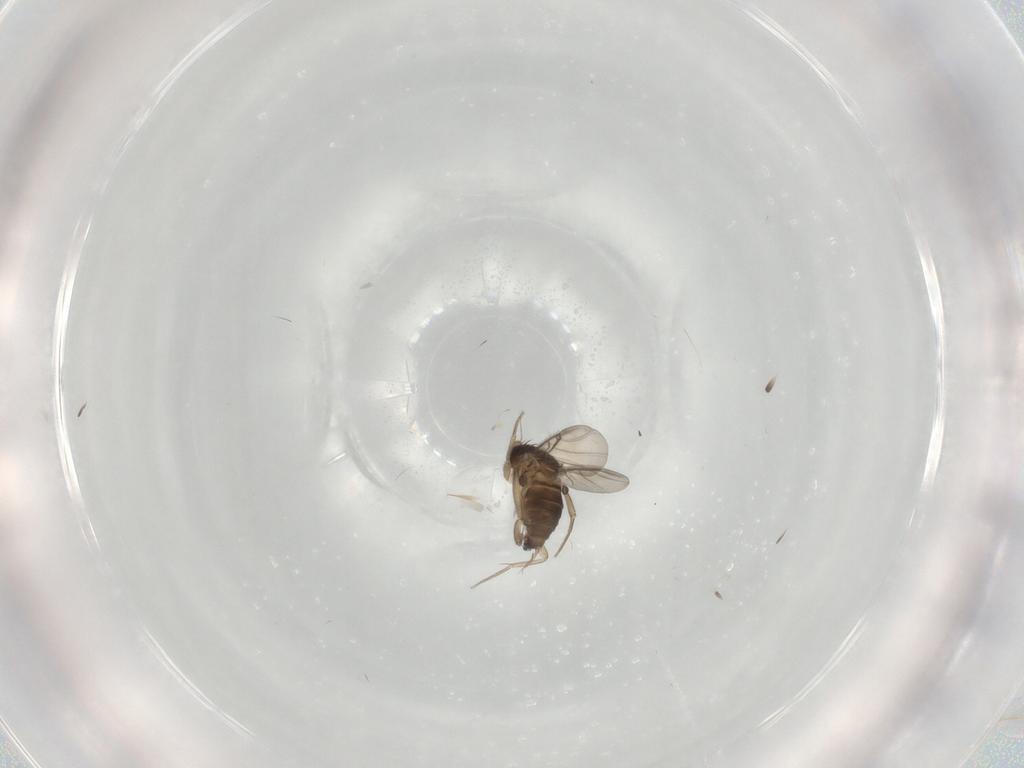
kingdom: Animalia
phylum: Arthropoda
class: Insecta
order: Diptera
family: Phoridae
